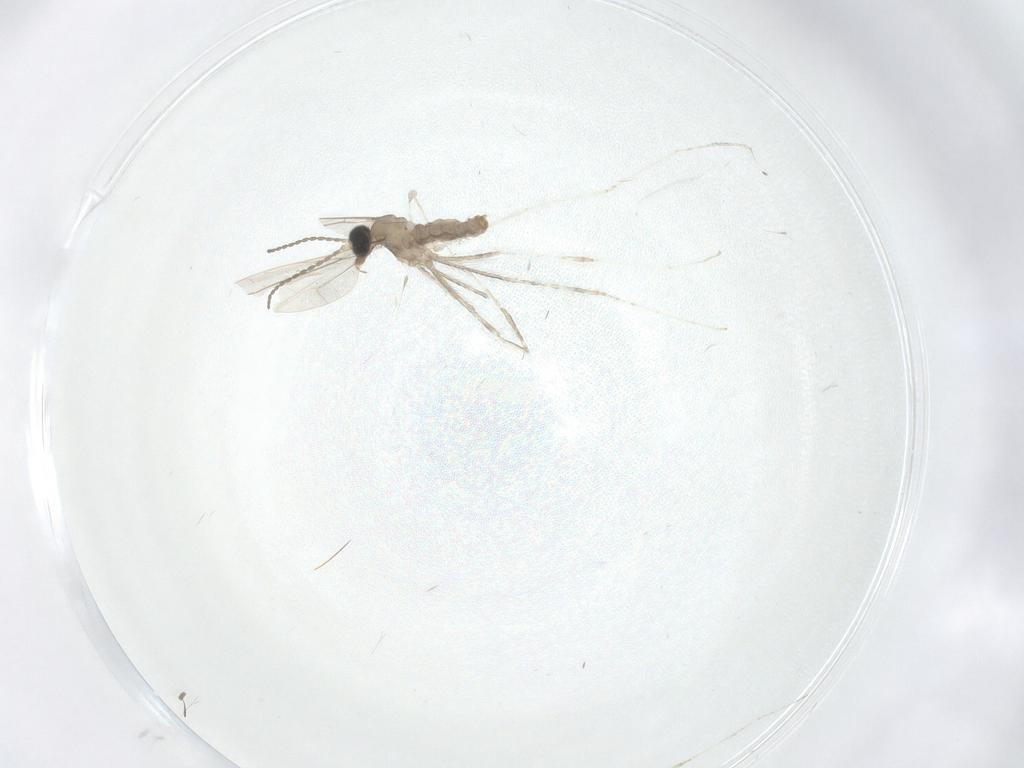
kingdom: Animalia
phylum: Arthropoda
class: Insecta
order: Diptera
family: Cecidomyiidae
